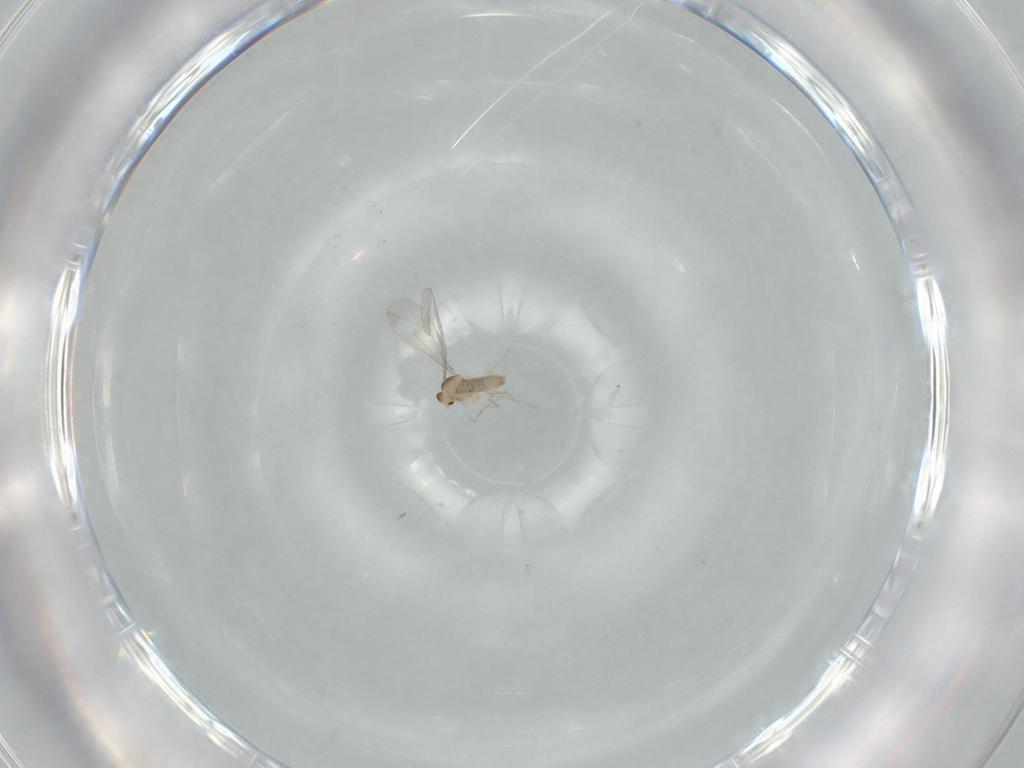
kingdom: Animalia
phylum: Arthropoda
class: Insecta
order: Diptera
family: Cecidomyiidae
